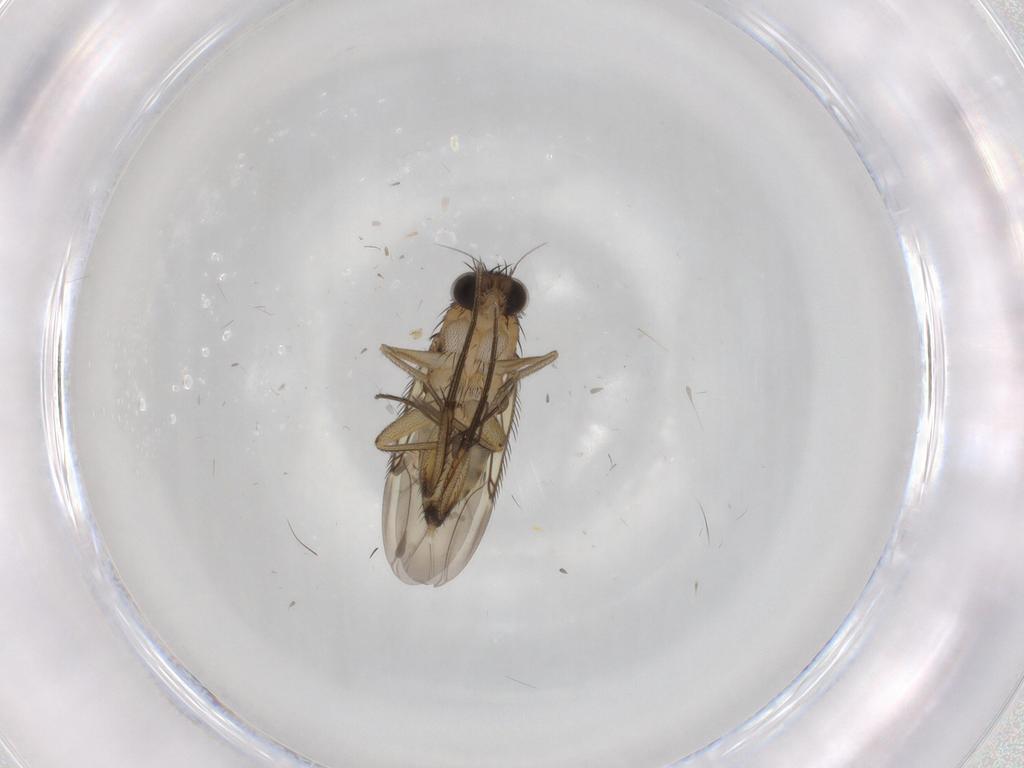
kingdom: Animalia
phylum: Arthropoda
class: Insecta
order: Diptera
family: Phoridae
